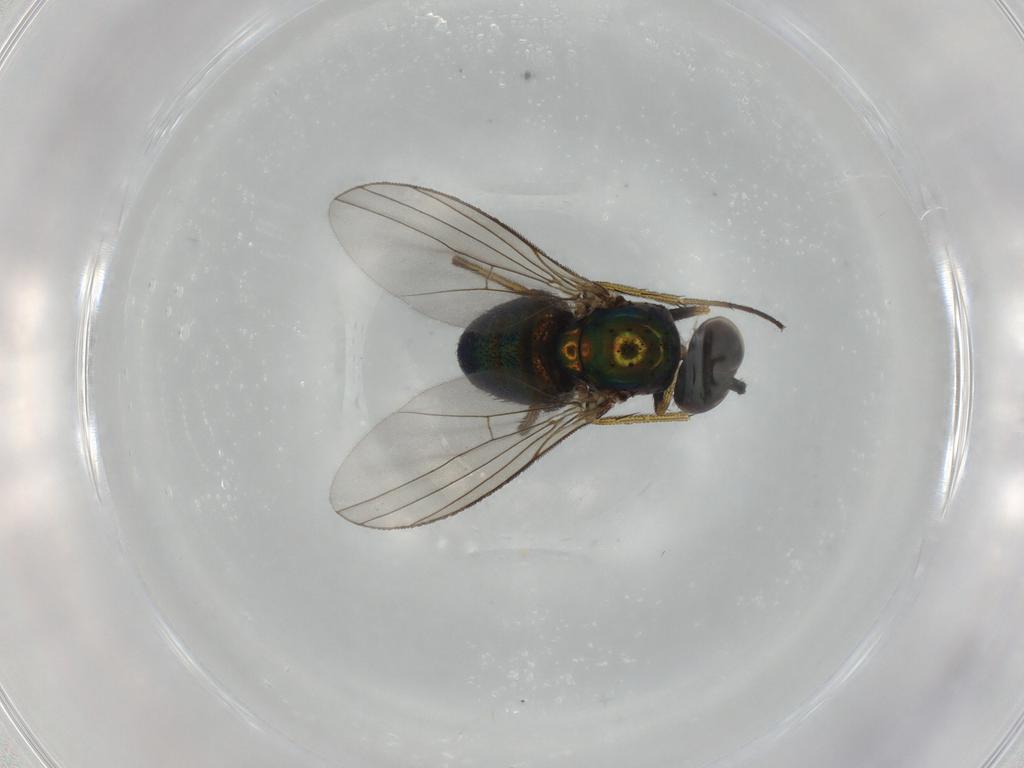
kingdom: Animalia
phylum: Arthropoda
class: Insecta
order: Diptera
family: Dolichopodidae
